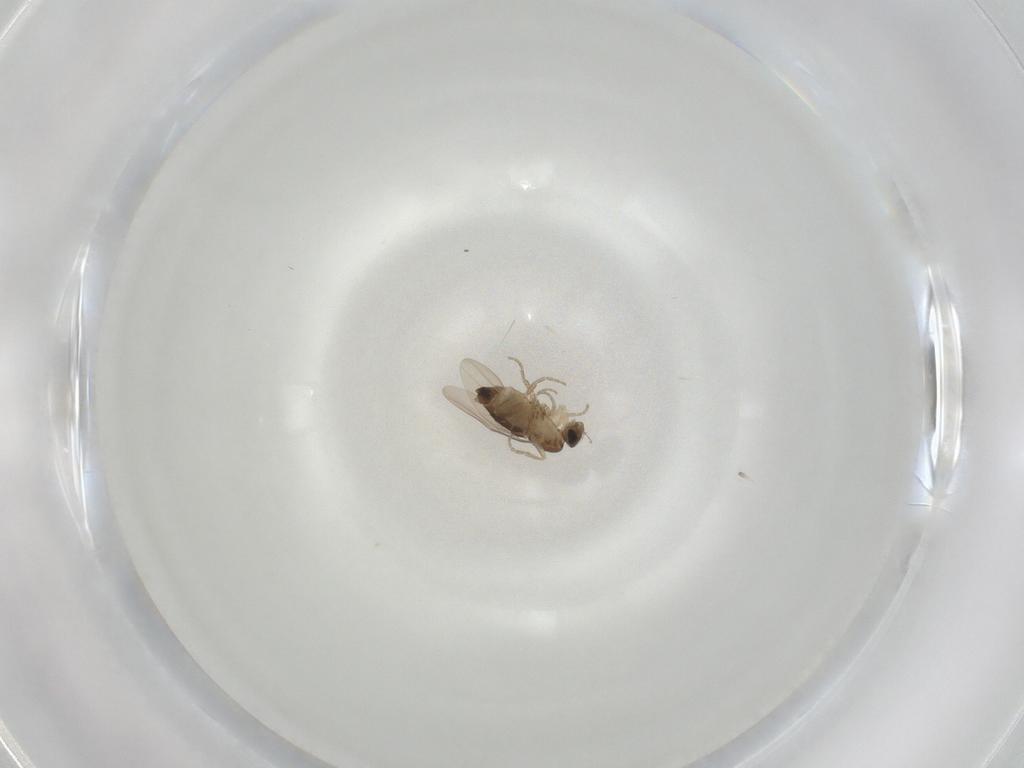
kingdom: Animalia
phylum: Arthropoda
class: Insecta
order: Diptera
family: Sciaridae
